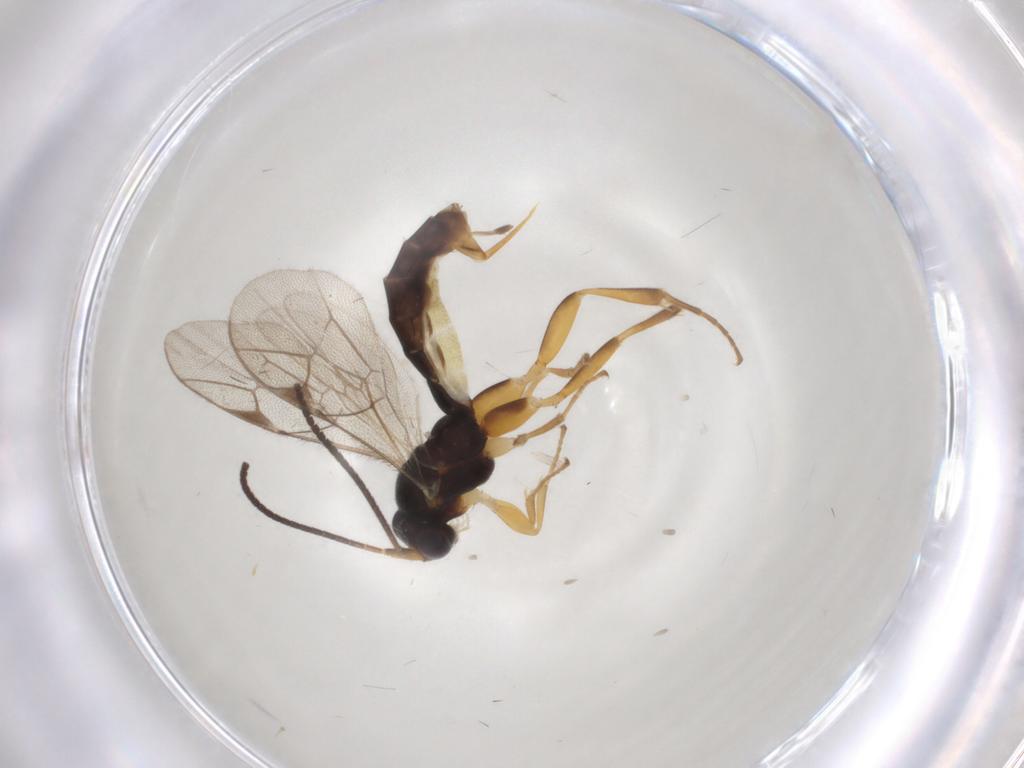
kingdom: Animalia
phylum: Arthropoda
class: Insecta
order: Hymenoptera
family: Ichneumonidae
